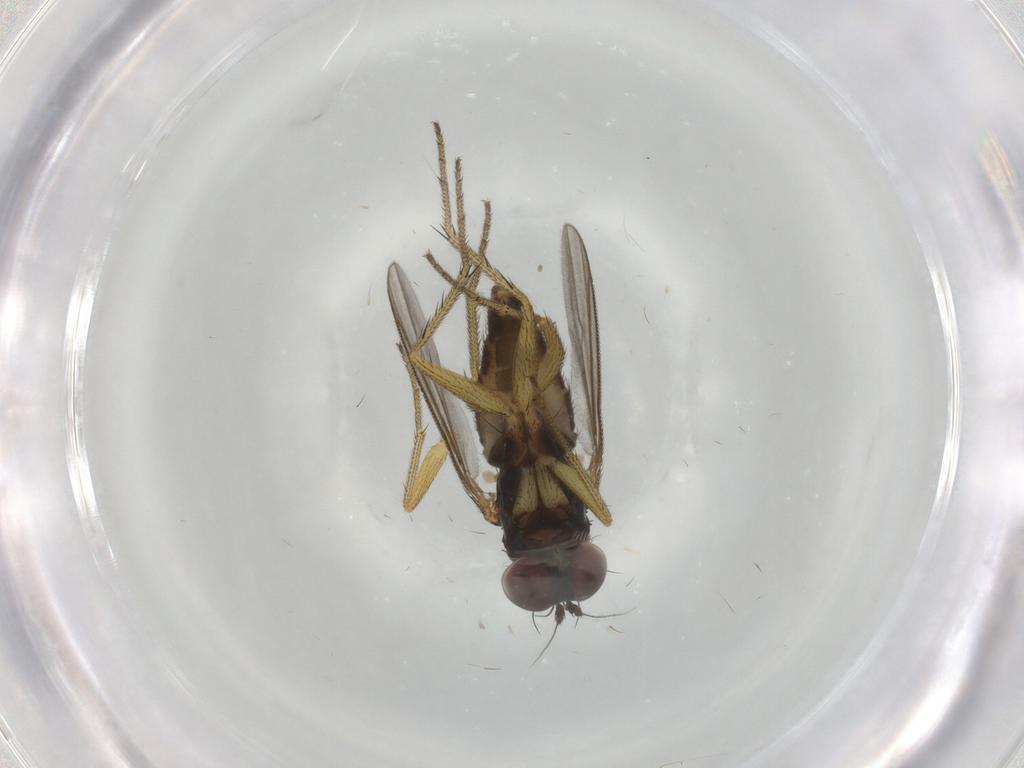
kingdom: Animalia
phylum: Arthropoda
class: Insecta
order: Diptera
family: Dolichopodidae
